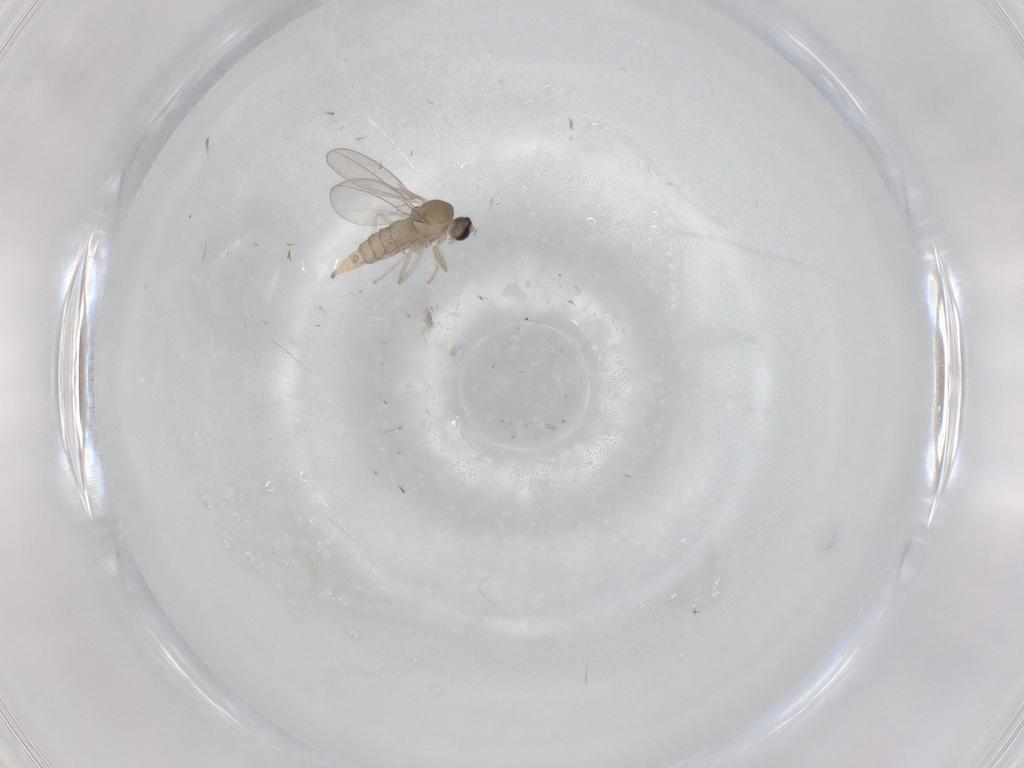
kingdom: Animalia
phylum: Arthropoda
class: Insecta
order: Diptera
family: Cecidomyiidae
